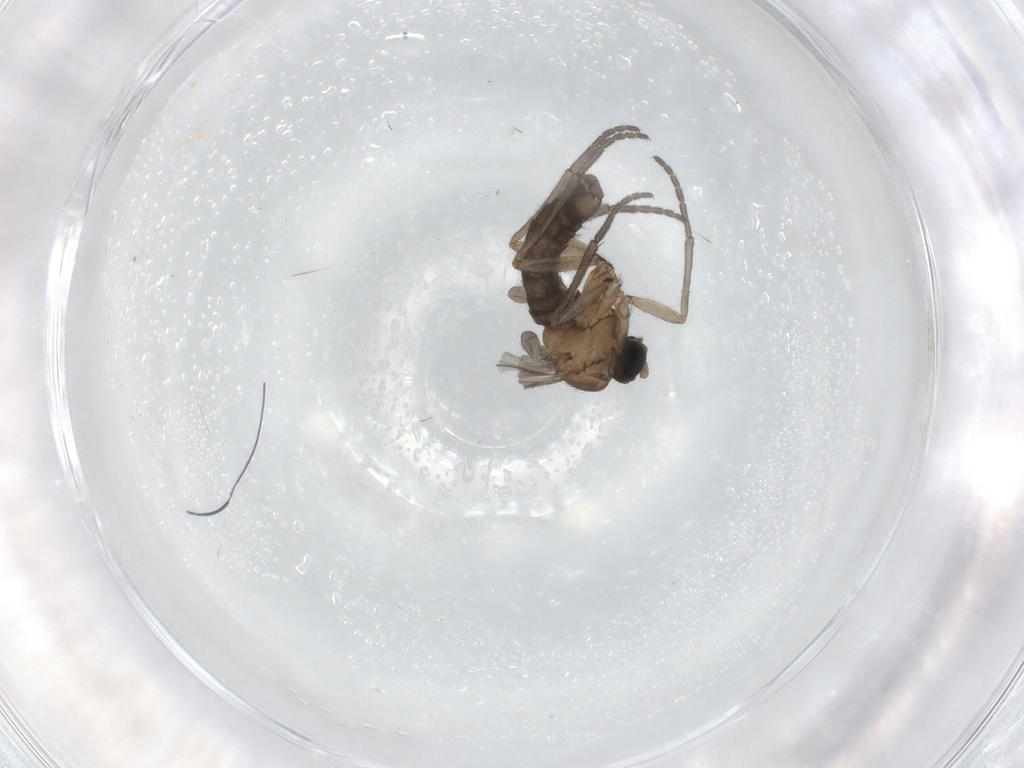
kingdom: Animalia
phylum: Arthropoda
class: Insecta
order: Diptera
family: Sciaridae
